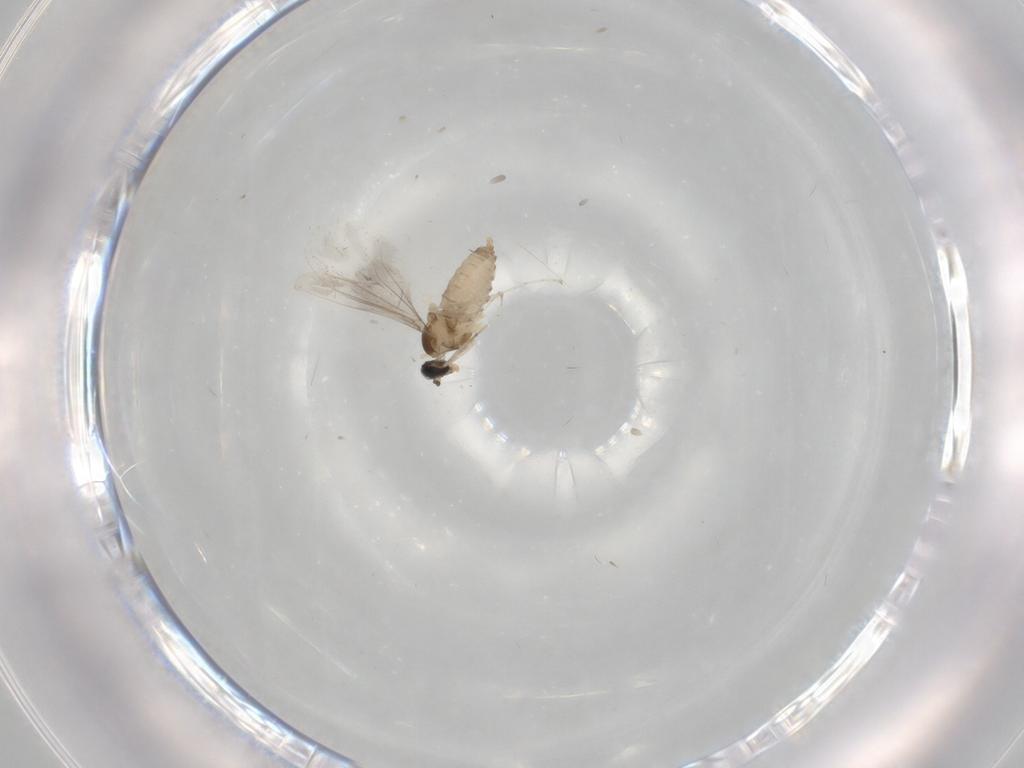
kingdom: Animalia
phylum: Arthropoda
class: Insecta
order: Diptera
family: Cecidomyiidae
